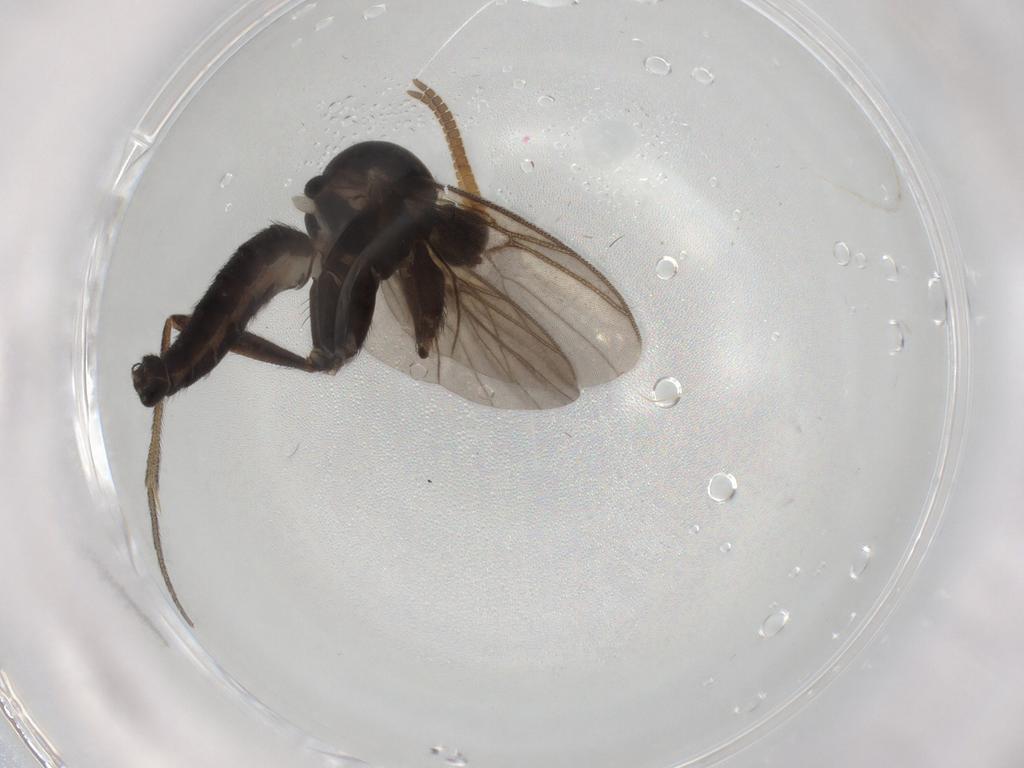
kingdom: Animalia
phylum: Arthropoda
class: Insecta
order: Diptera
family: Mycetophilidae
